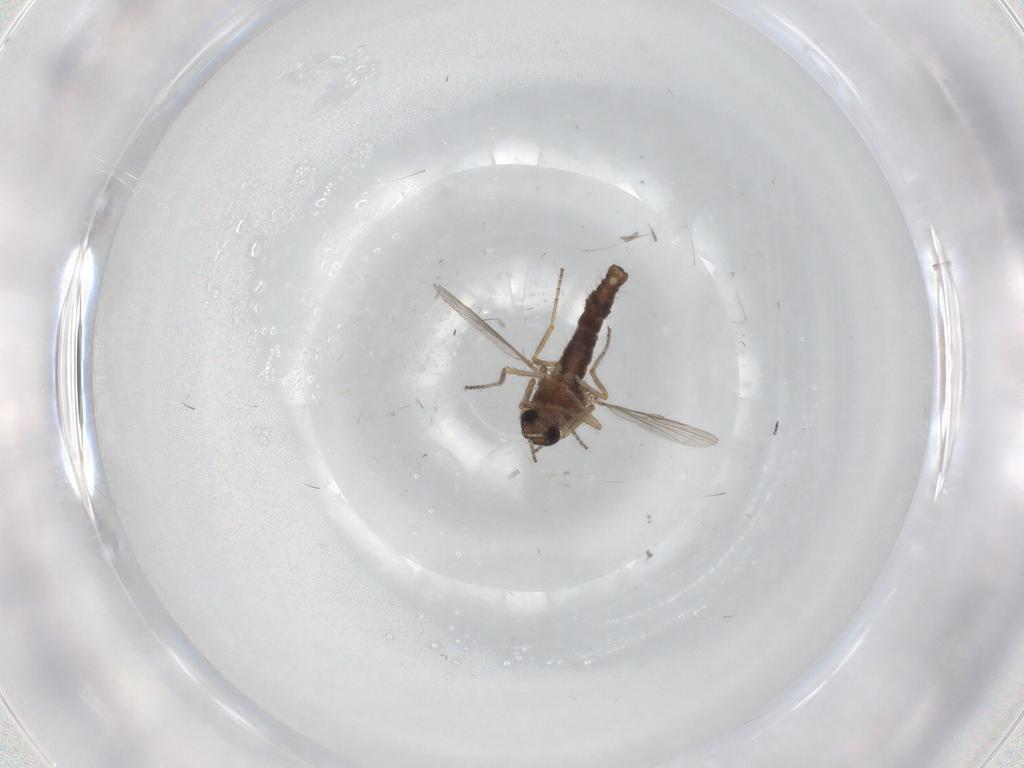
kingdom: Animalia
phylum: Arthropoda
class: Insecta
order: Diptera
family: Ceratopogonidae
